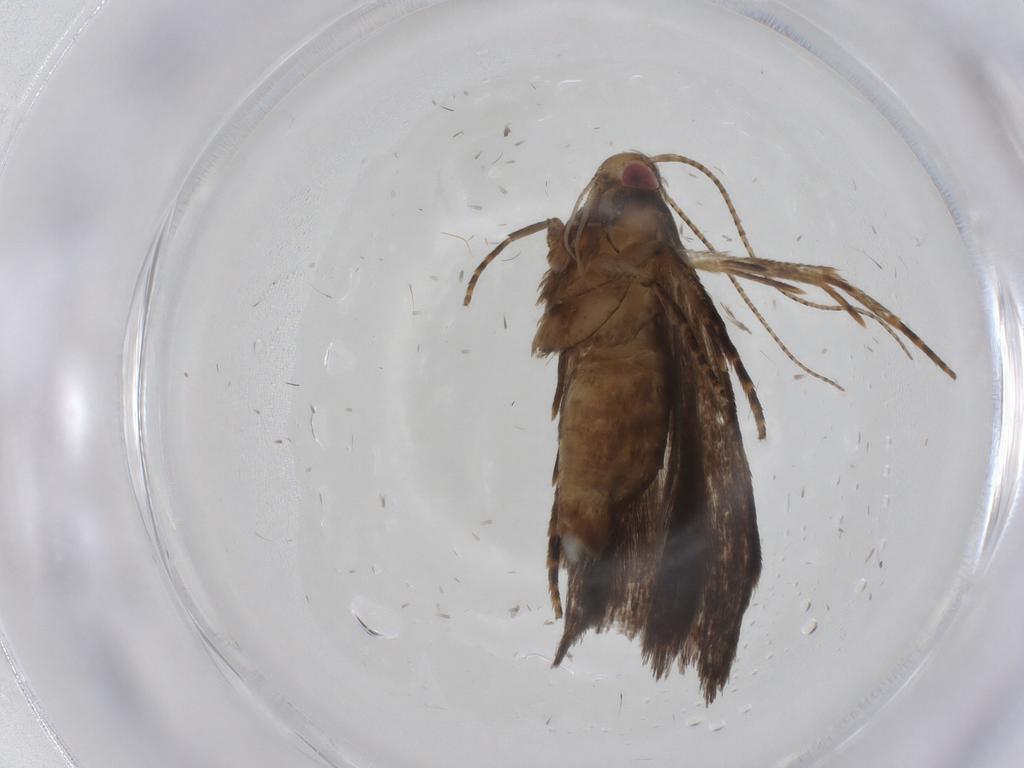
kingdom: Animalia
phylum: Arthropoda
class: Insecta
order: Lepidoptera
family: Gelechiidae
